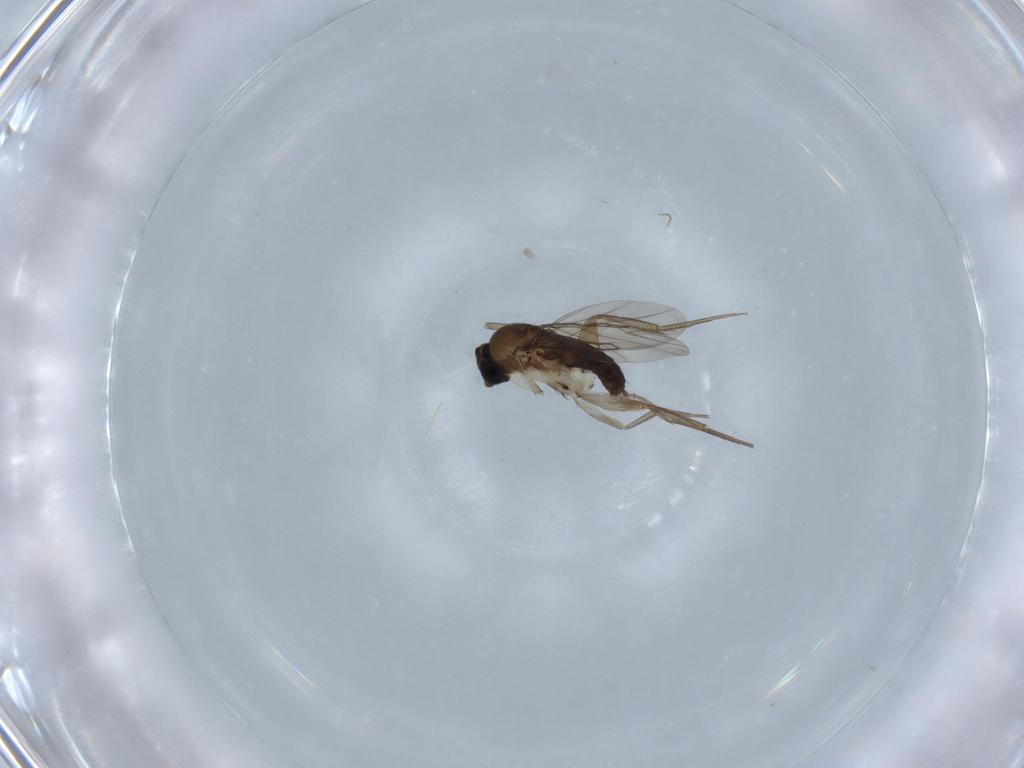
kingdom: Animalia
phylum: Arthropoda
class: Insecta
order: Diptera
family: Phoridae
